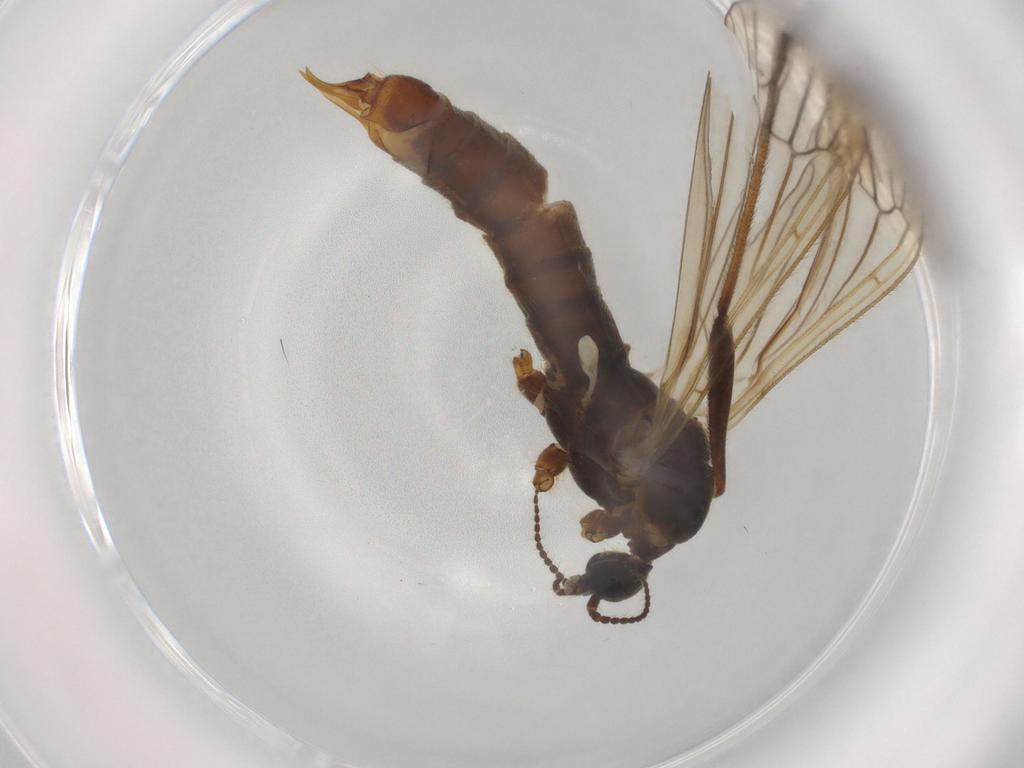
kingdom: Animalia
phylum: Arthropoda
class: Insecta
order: Diptera
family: Limoniidae
